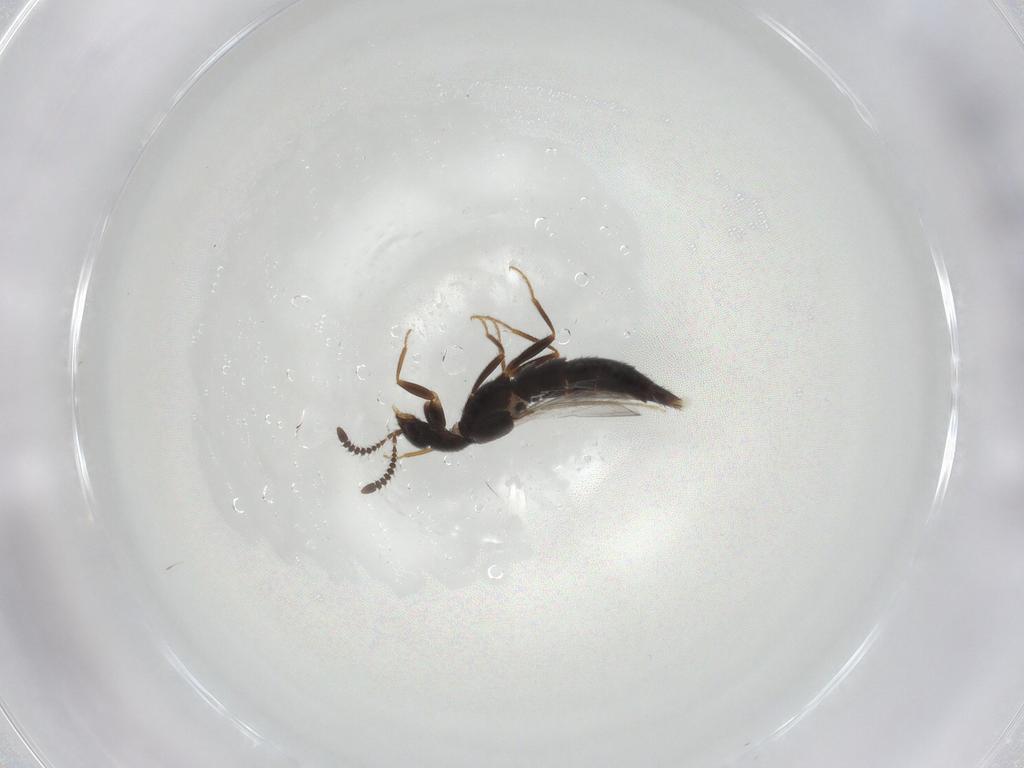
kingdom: Animalia
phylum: Arthropoda
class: Insecta
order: Coleoptera
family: Staphylinidae
